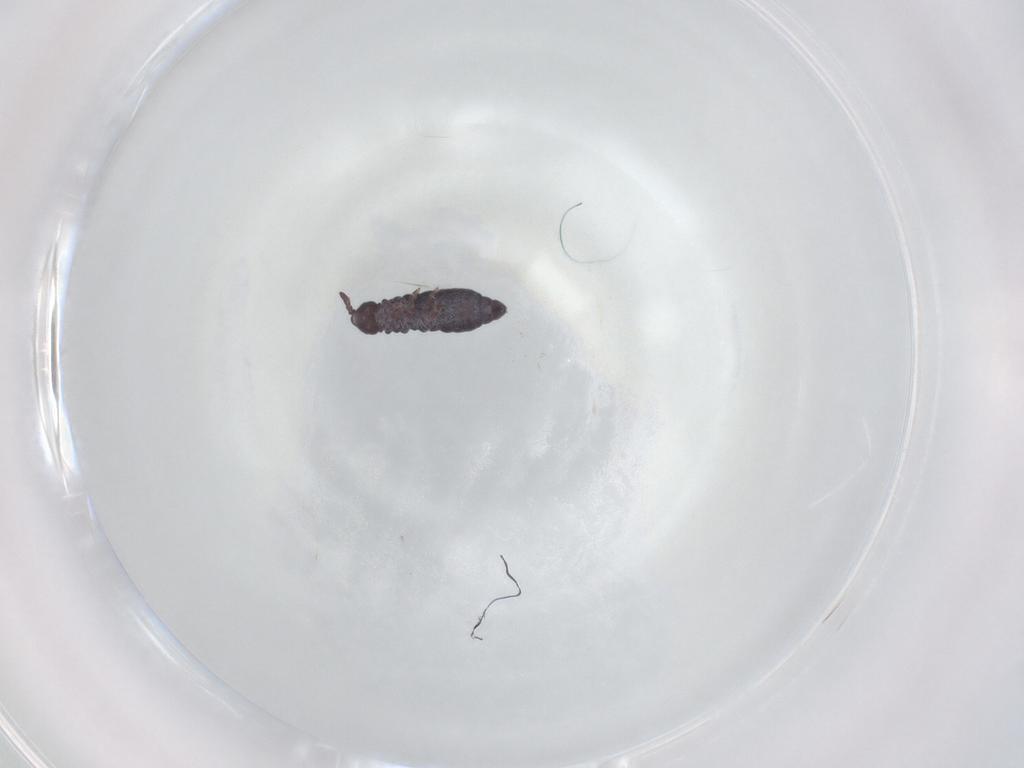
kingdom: Animalia
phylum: Arthropoda
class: Collembola
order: Poduromorpha
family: Hypogastruridae
